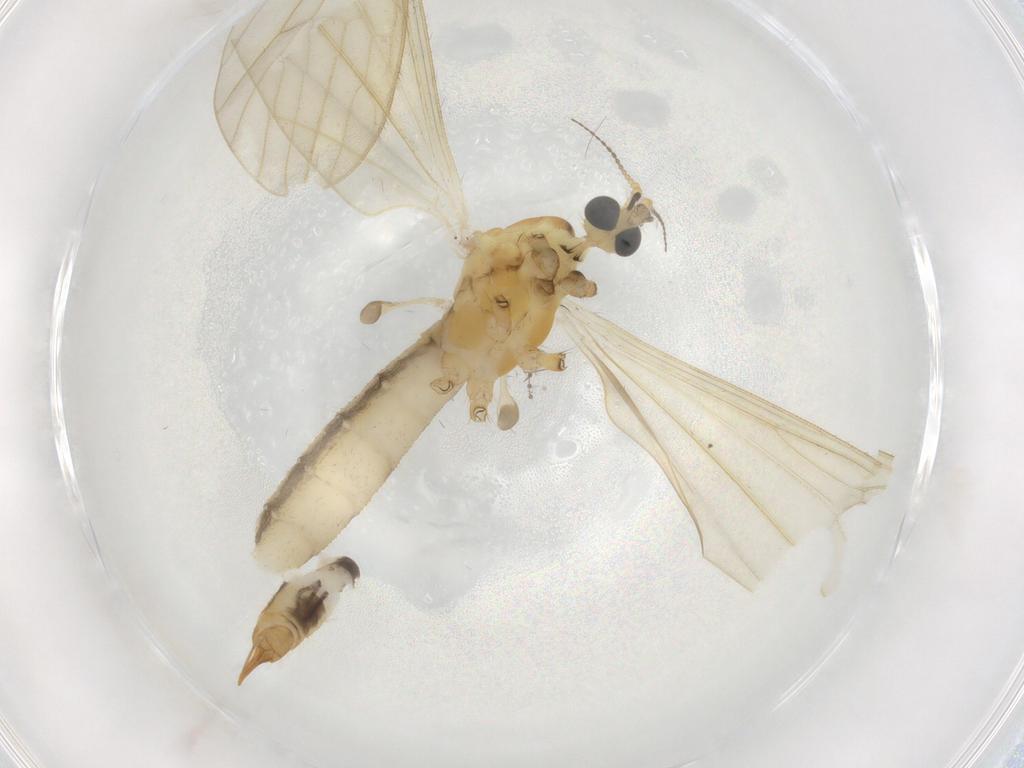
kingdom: Animalia
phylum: Arthropoda
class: Insecta
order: Diptera
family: Limoniidae
